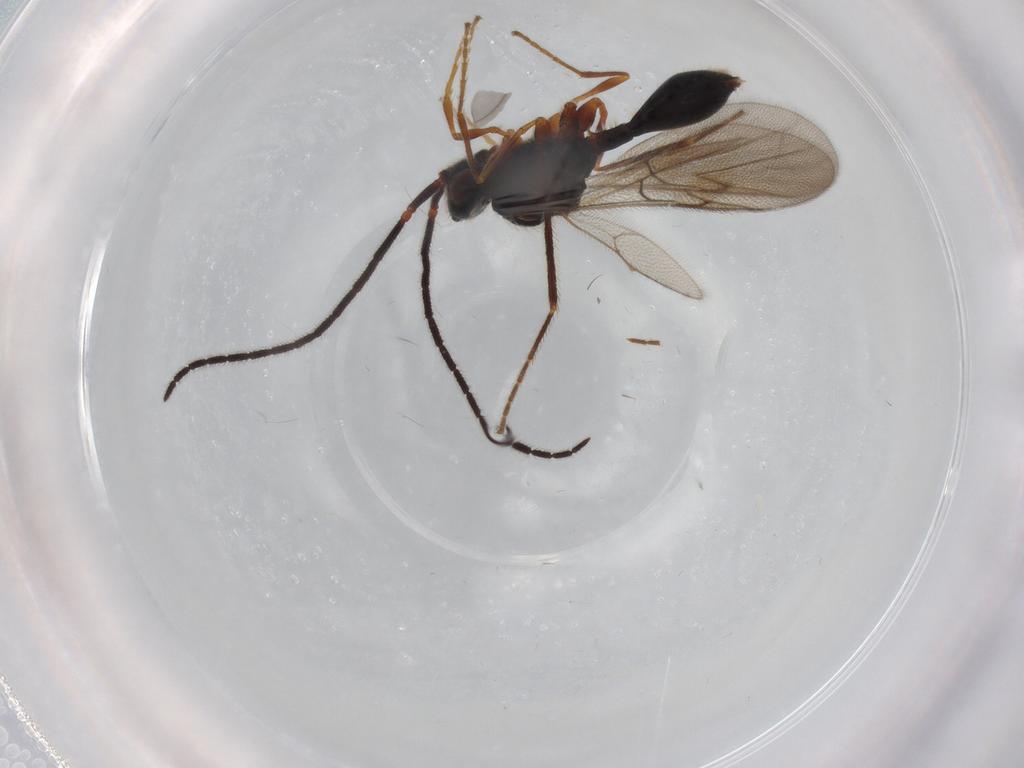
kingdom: Animalia
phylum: Arthropoda
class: Insecta
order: Hymenoptera
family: Diapriidae
